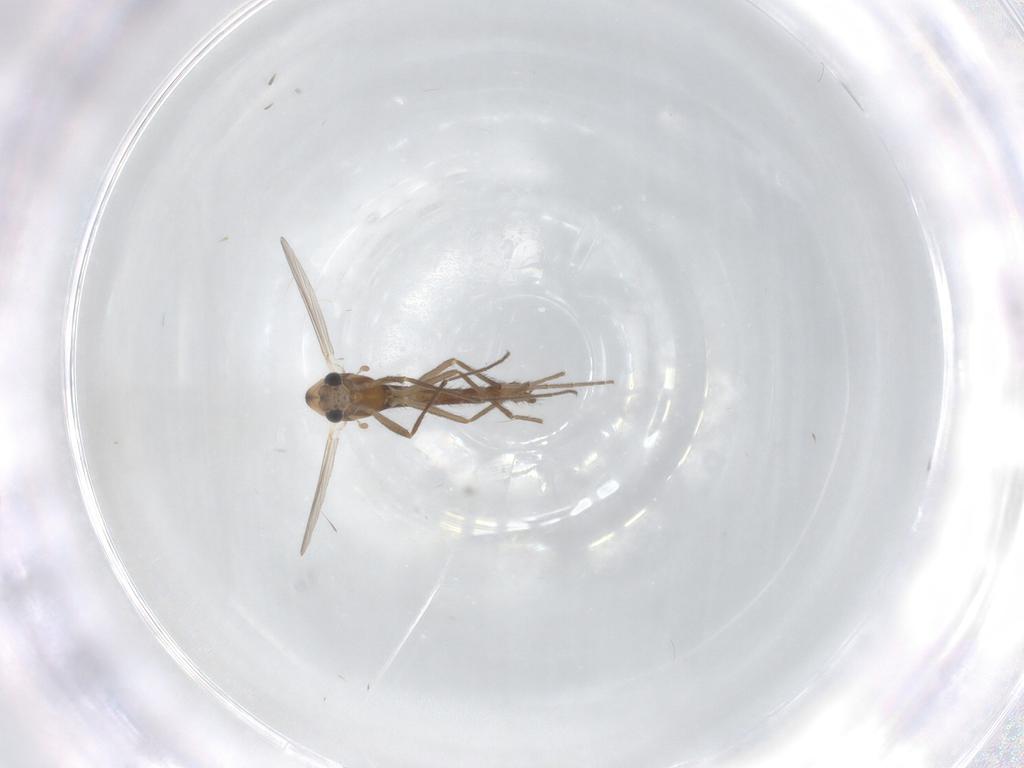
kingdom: Animalia
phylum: Arthropoda
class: Insecta
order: Diptera
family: Chironomidae
